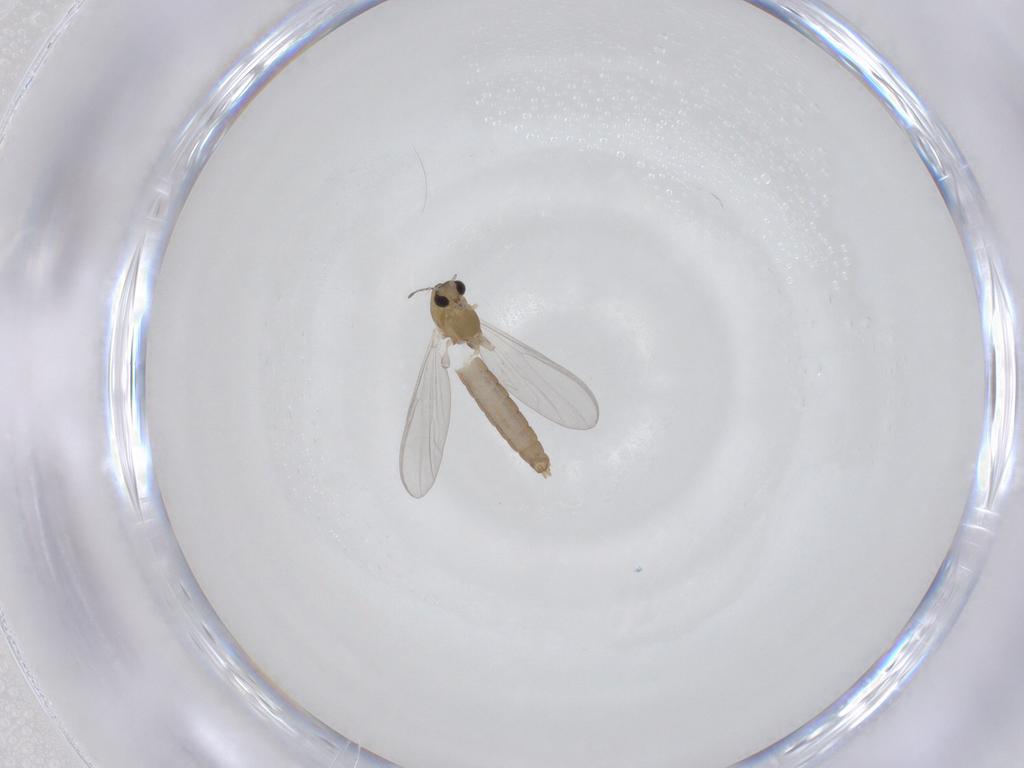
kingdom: Animalia
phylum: Arthropoda
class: Insecta
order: Diptera
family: Chironomidae
